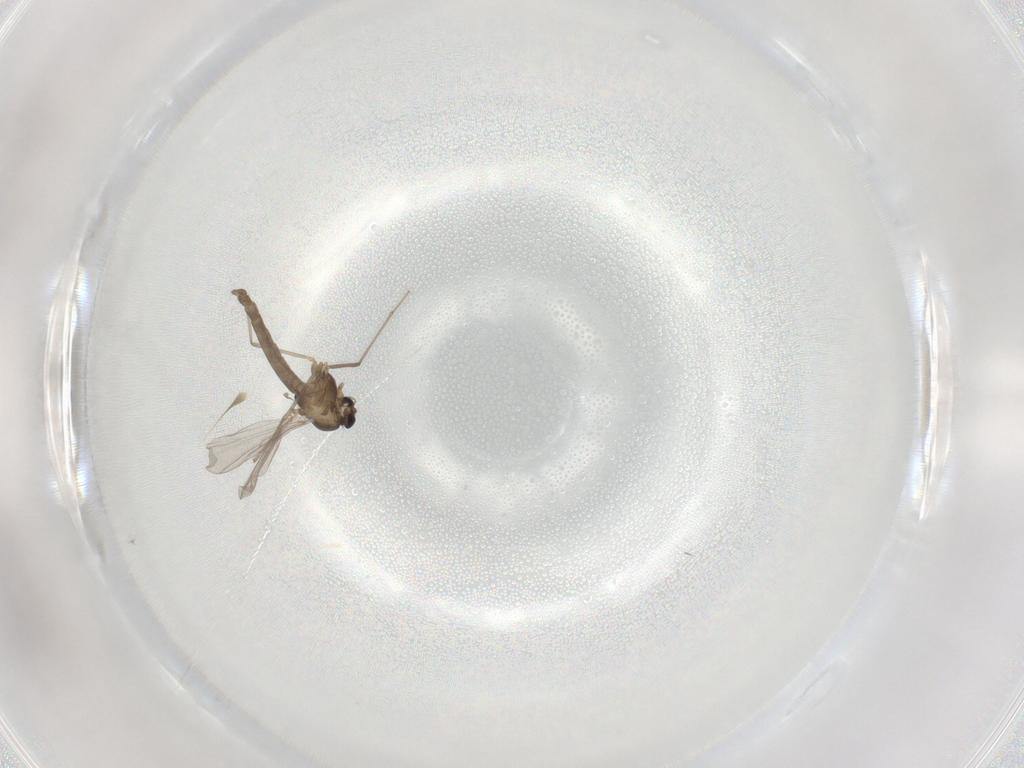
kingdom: Animalia
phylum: Arthropoda
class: Insecta
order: Diptera
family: Chironomidae
